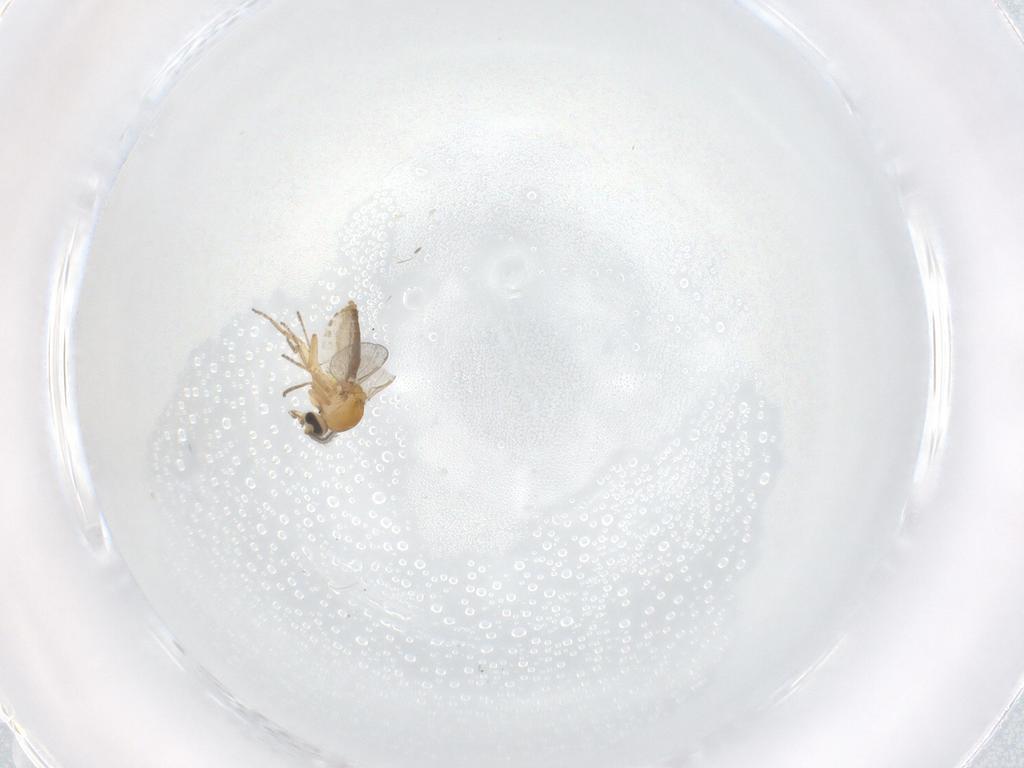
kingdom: Animalia
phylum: Arthropoda
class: Insecta
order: Diptera
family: Ceratopogonidae
